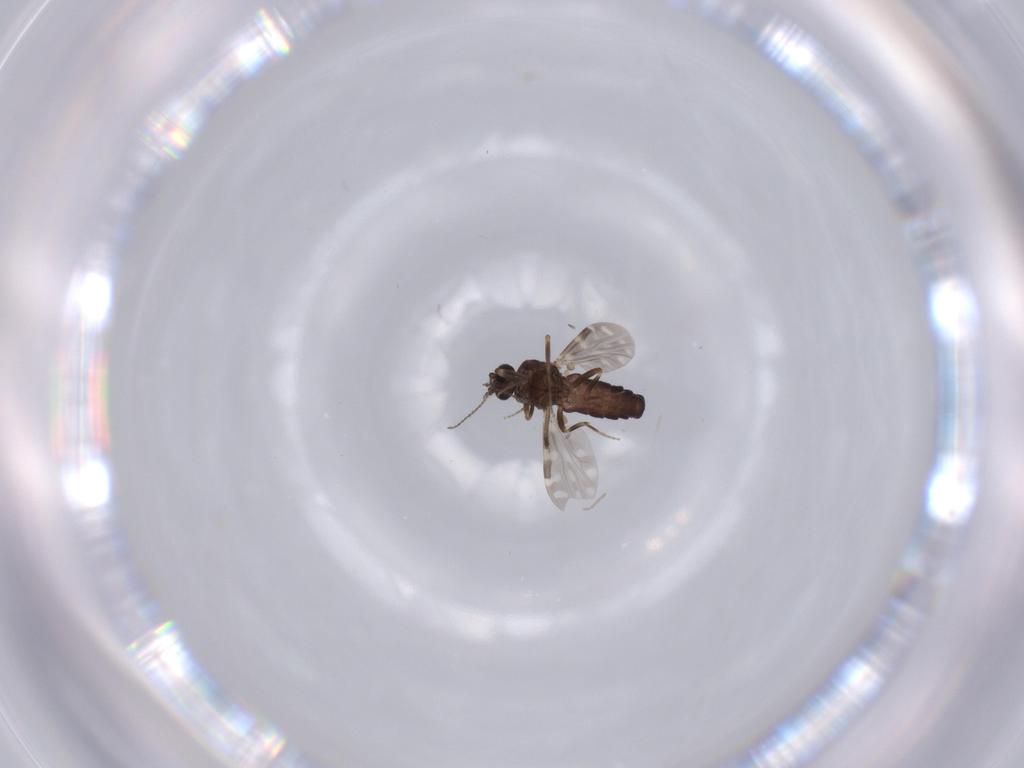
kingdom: Animalia
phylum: Arthropoda
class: Insecta
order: Diptera
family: Ceratopogonidae
